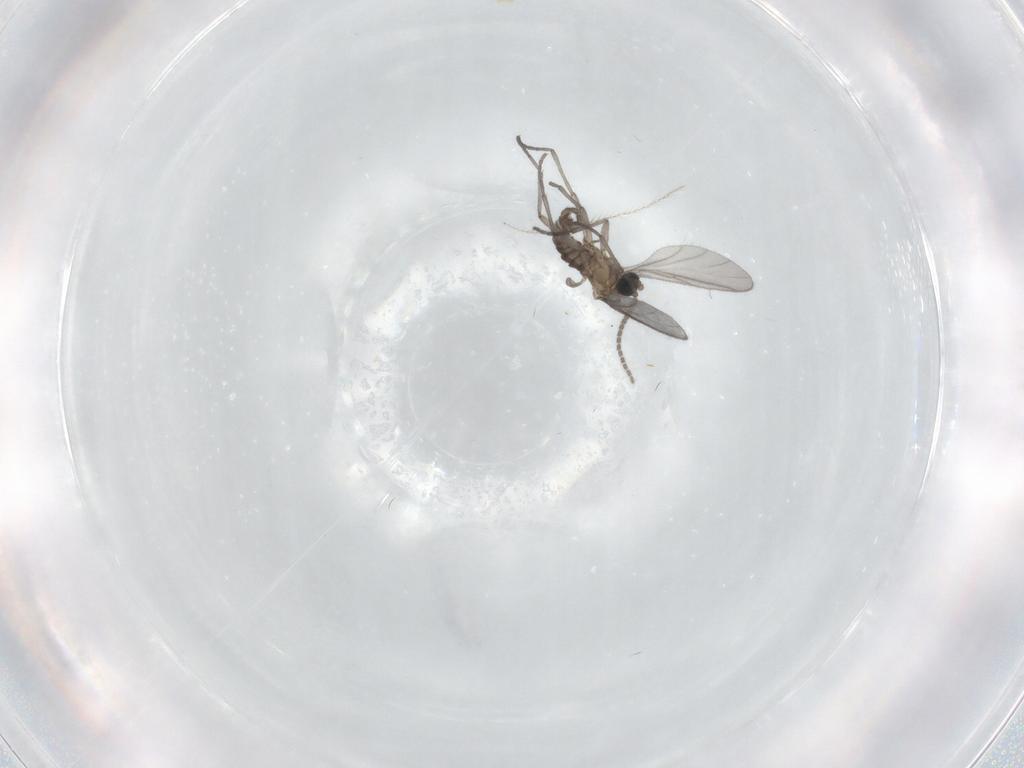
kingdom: Animalia
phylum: Arthropoda
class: Insecta
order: Diptera
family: Sciaridae
